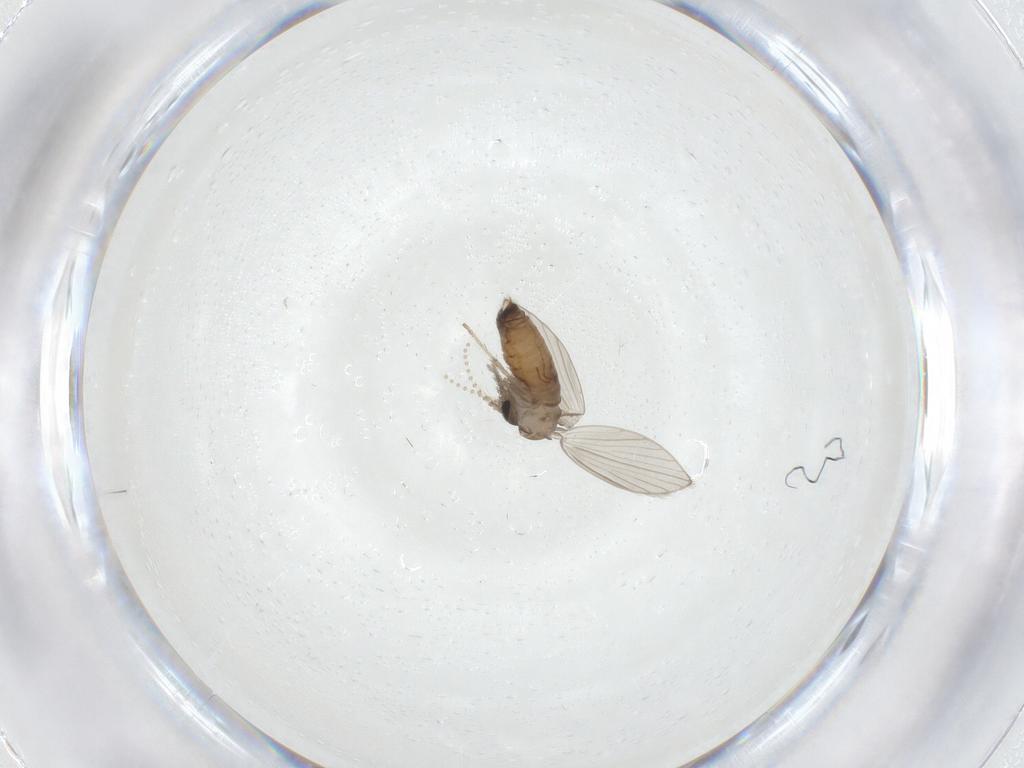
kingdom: Animalia
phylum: Arthropoda
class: Insecta
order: Diptera
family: Psychodidae
